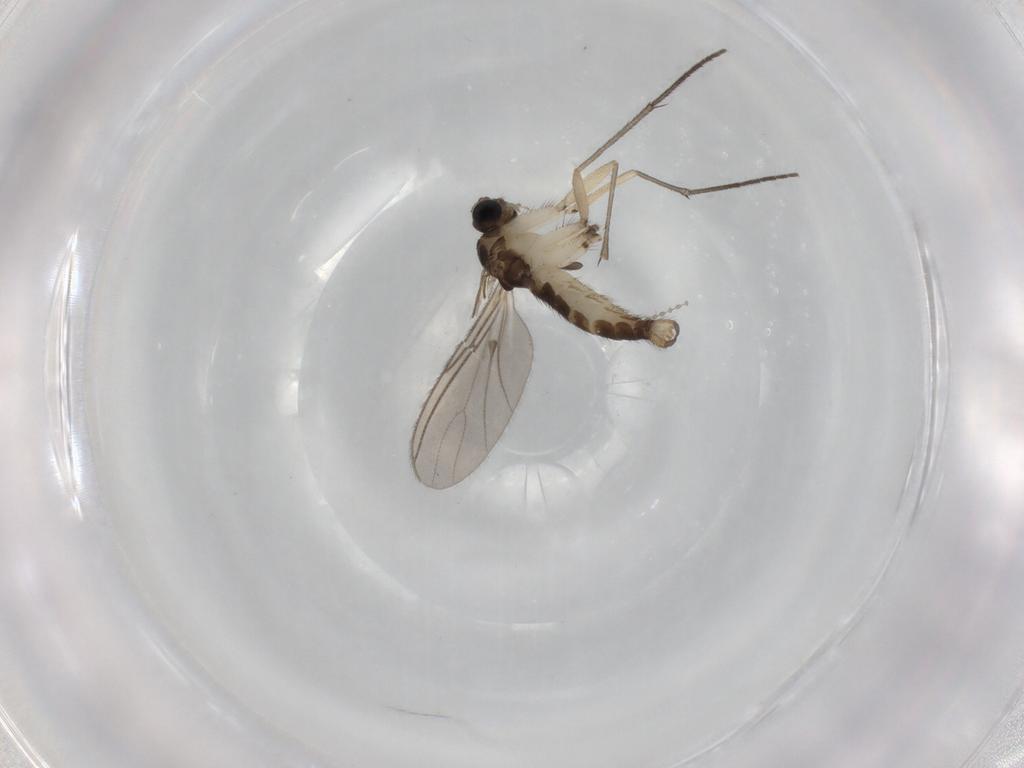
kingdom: Animalia
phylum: Arthropoda
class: Insecta
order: Diptera
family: Sciaridae
